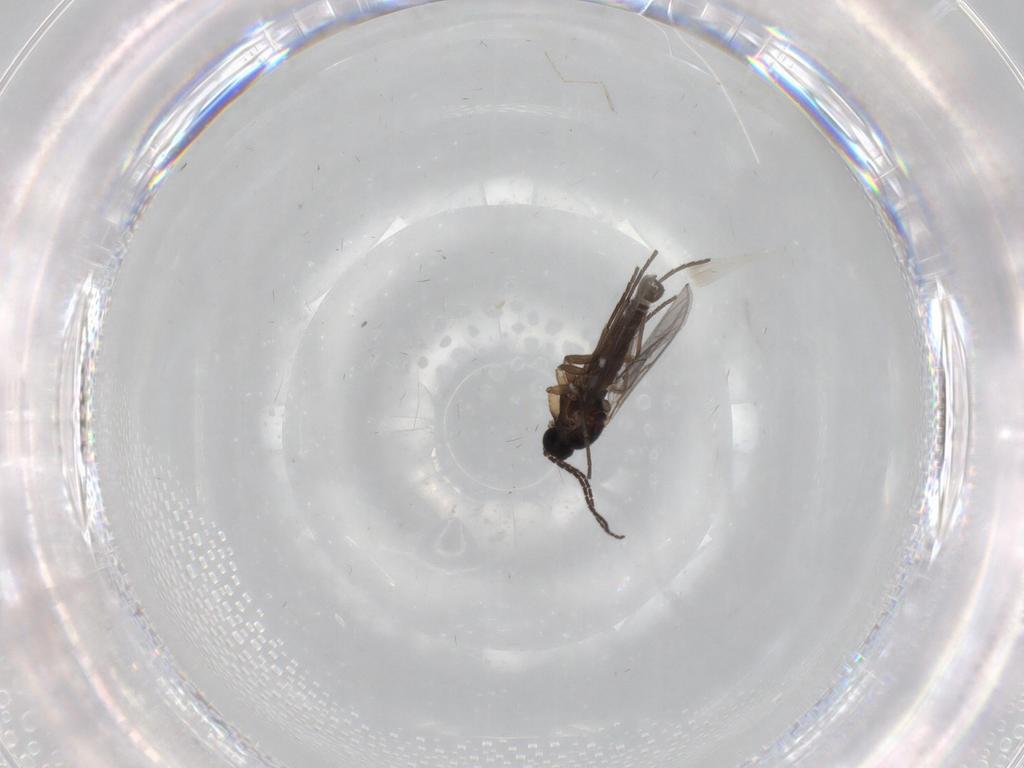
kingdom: Animalia
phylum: Arthropoda
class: Insecta
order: Diptera
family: Sciaridae
